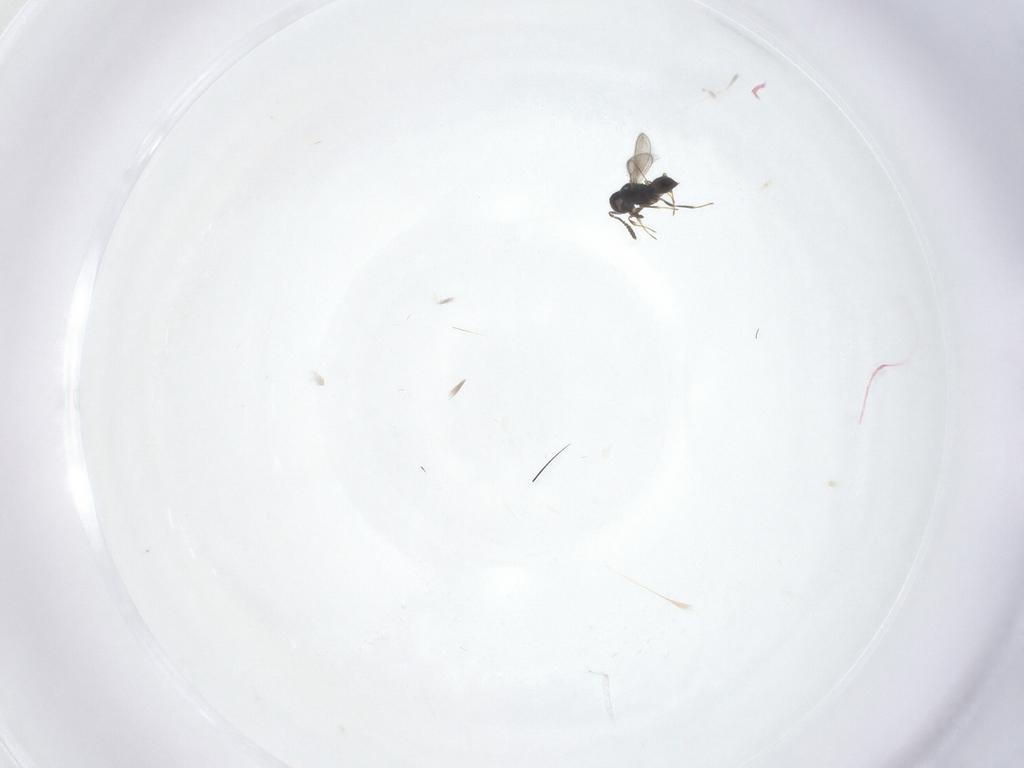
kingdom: Animalia
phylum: Arthropoda
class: Insecta
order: Hymenoptera
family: Scelionidae
